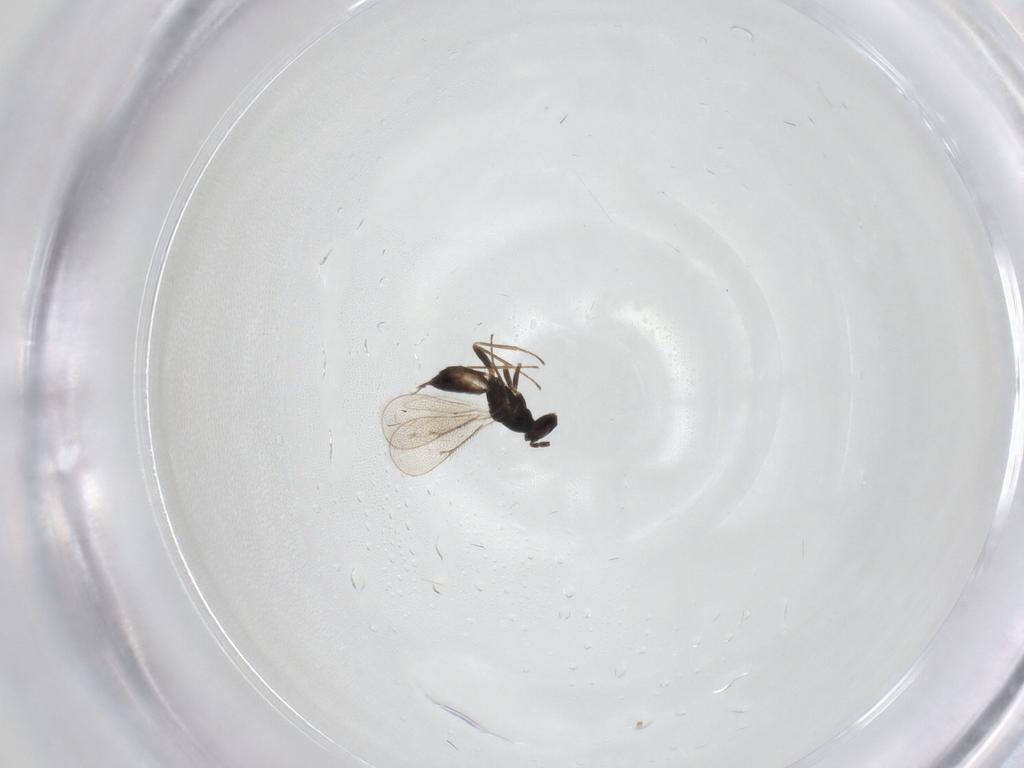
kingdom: Animalia
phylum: Arthropoda
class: Insecta
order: Hymenoptera
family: Eulophidae
